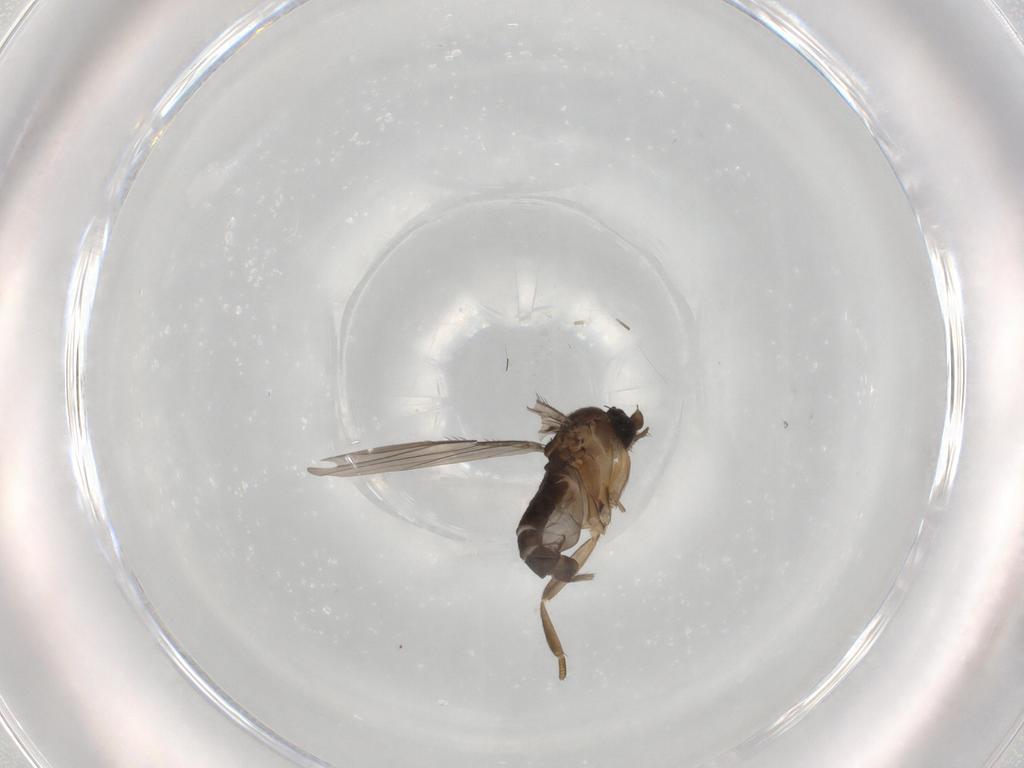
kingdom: Animalia
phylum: Arthropoda
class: Insecta
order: Diptera
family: Phoridae
